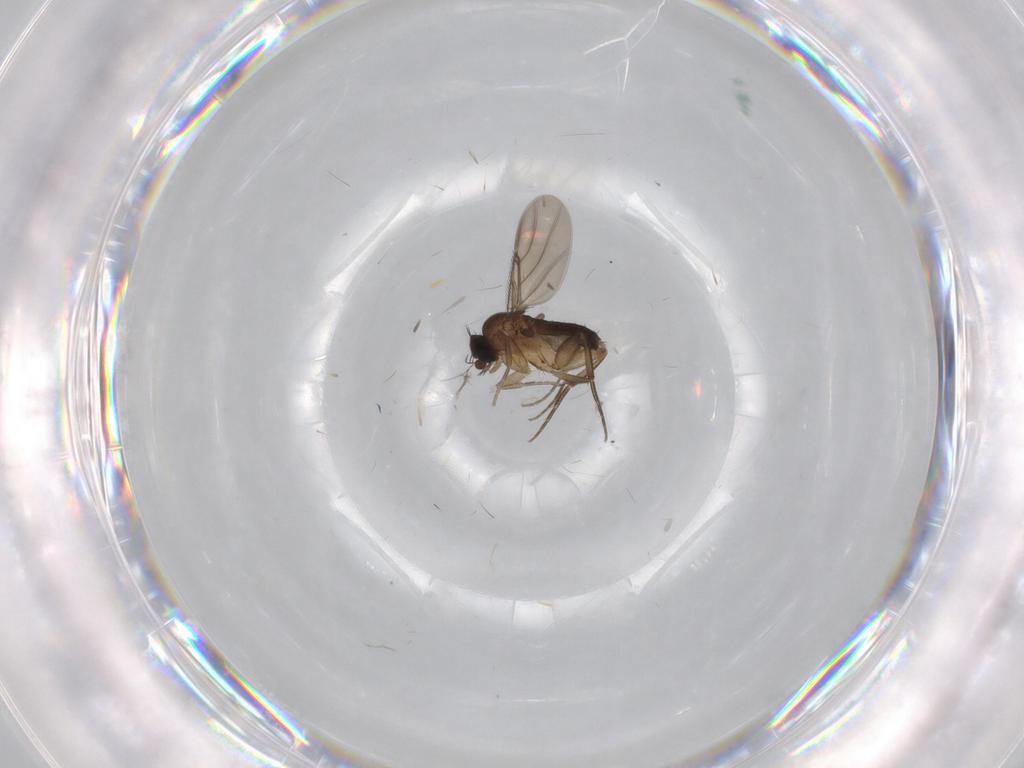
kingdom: Animalia
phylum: Arthropoda
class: Insecta
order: Diptera
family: Phoridae
